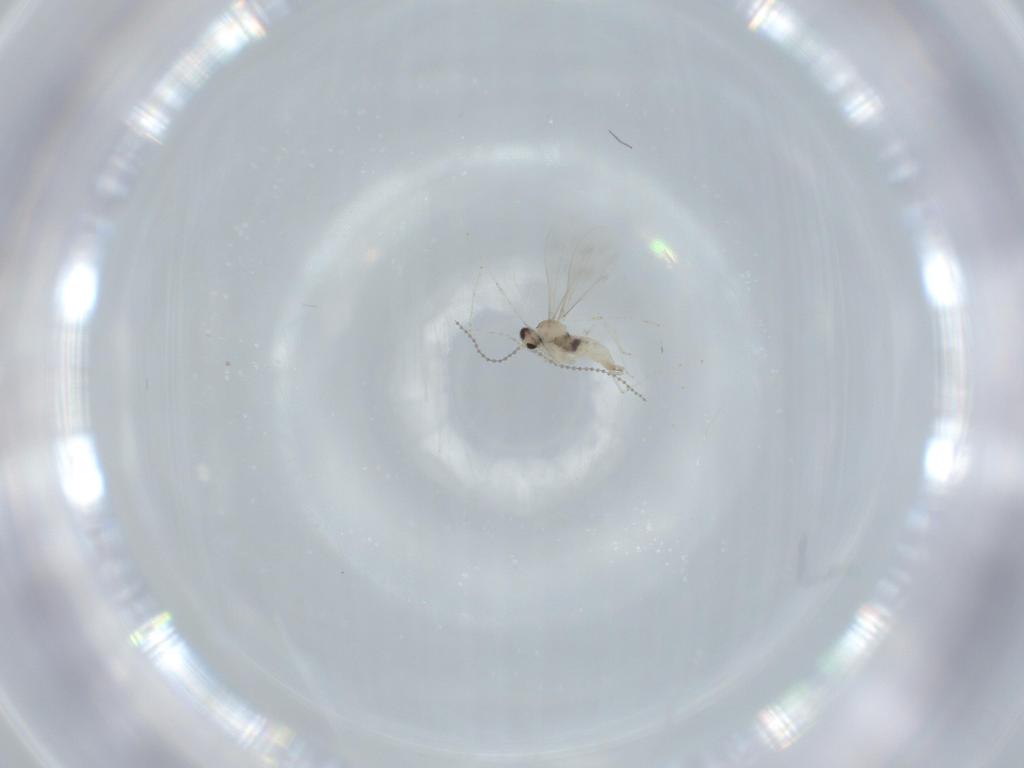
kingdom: Animalia
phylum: Arthropoda
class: Insecta
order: Diptera
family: Cecidomyiidae
